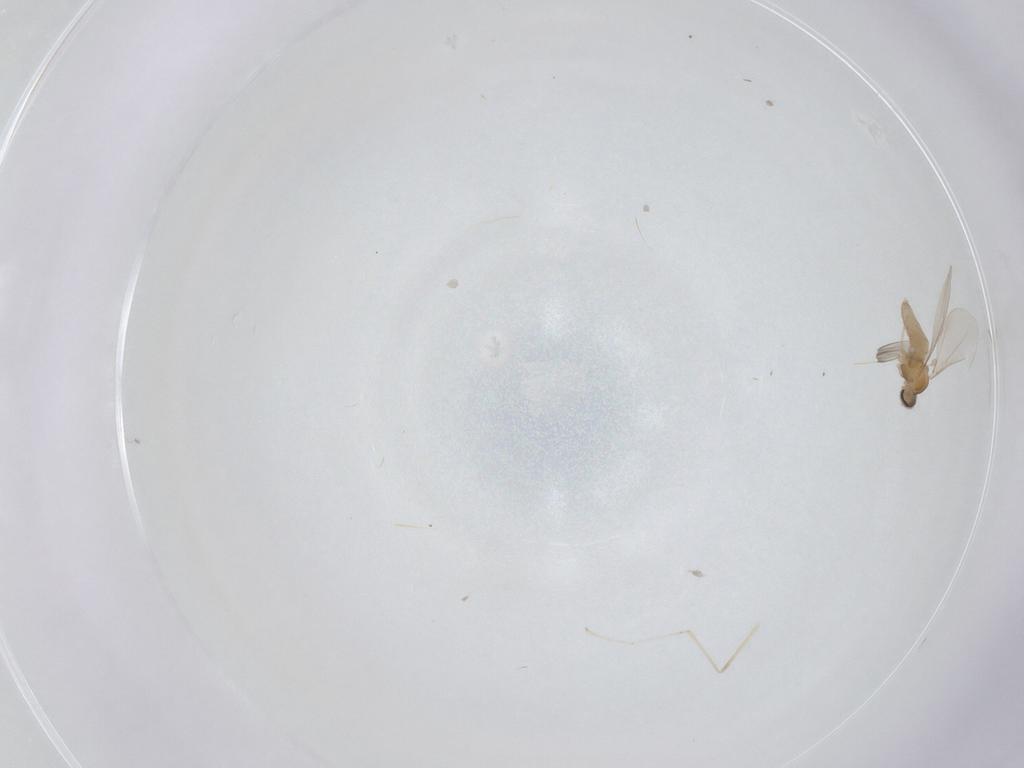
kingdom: Animalia
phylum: Arthropoda
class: Insecta
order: Diptera
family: Cecidomyiidae
